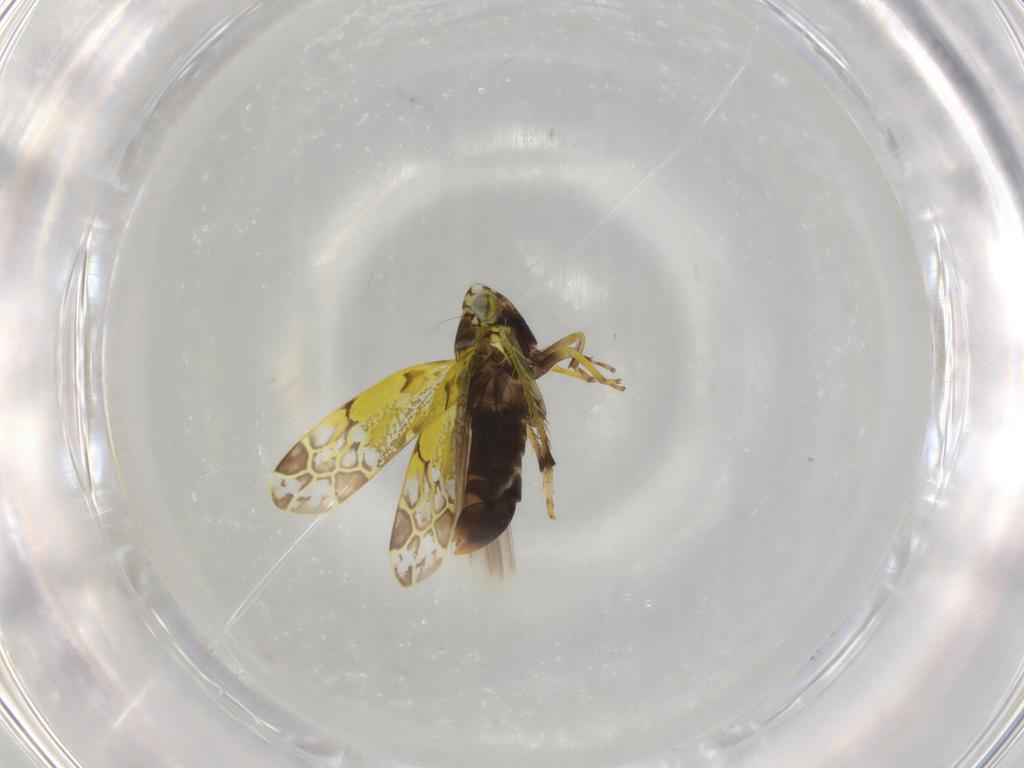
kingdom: Animalia
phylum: Arthropoda
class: Insecta
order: Hemiptera
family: Cicadellidae
